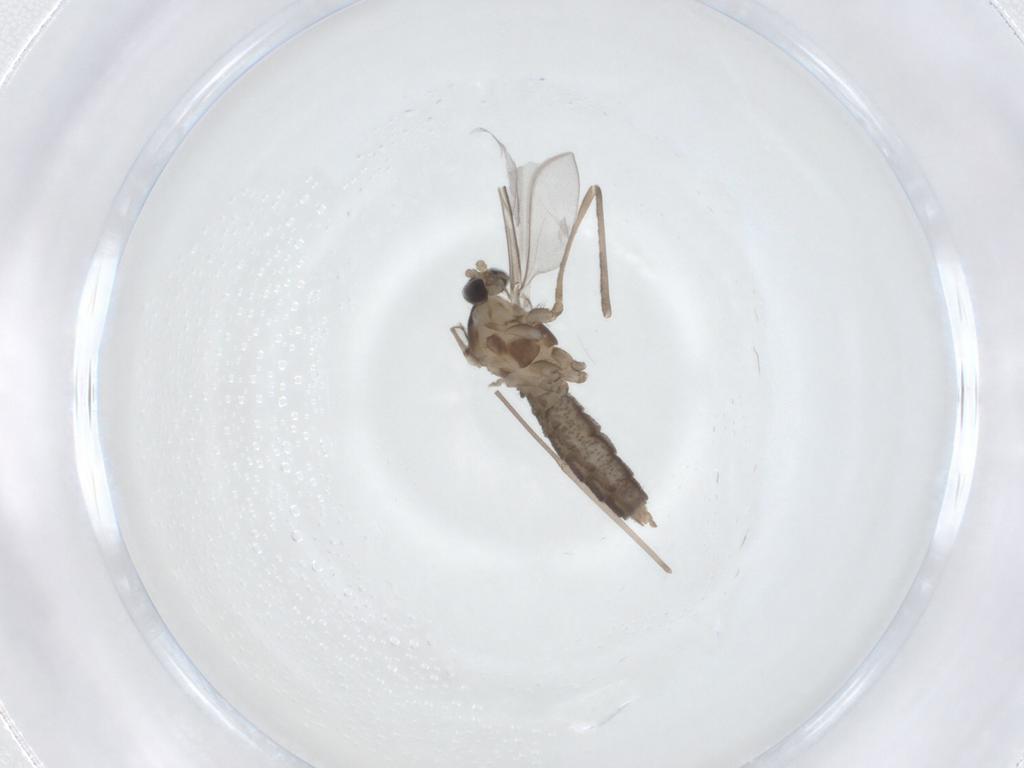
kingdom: Animalia
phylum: Arthropoda
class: Insecta
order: Diptera
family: Cecidomyiidae
